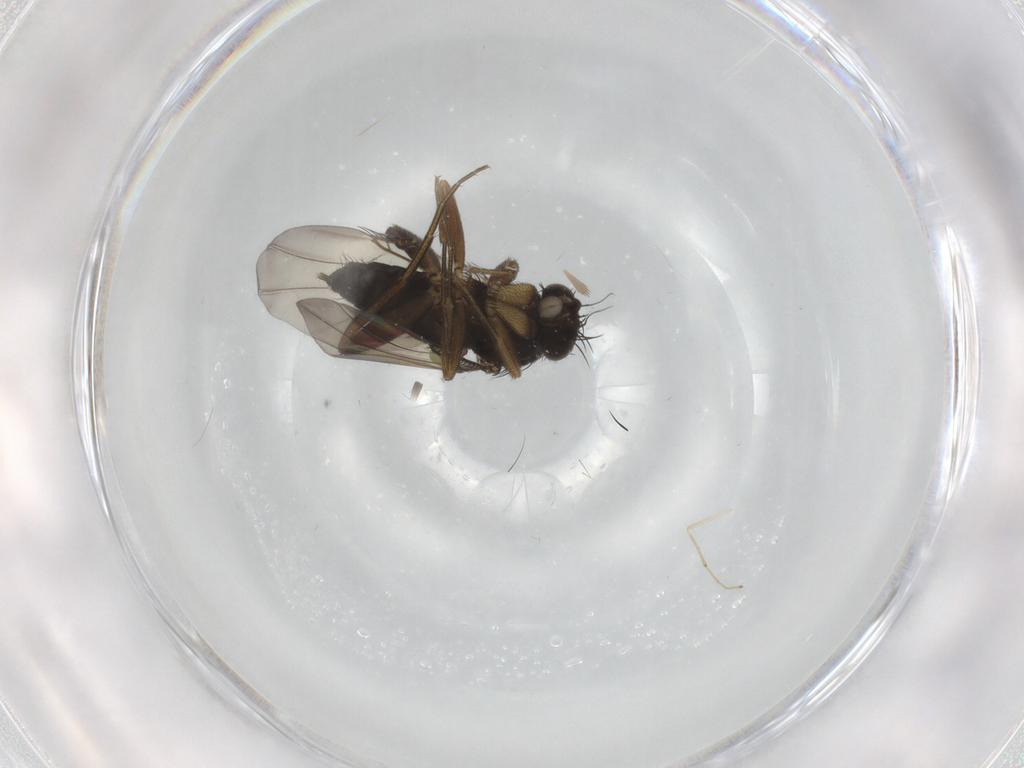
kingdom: Animalia
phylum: Arthropoda
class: Insecta
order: Diptera
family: Phoridae
